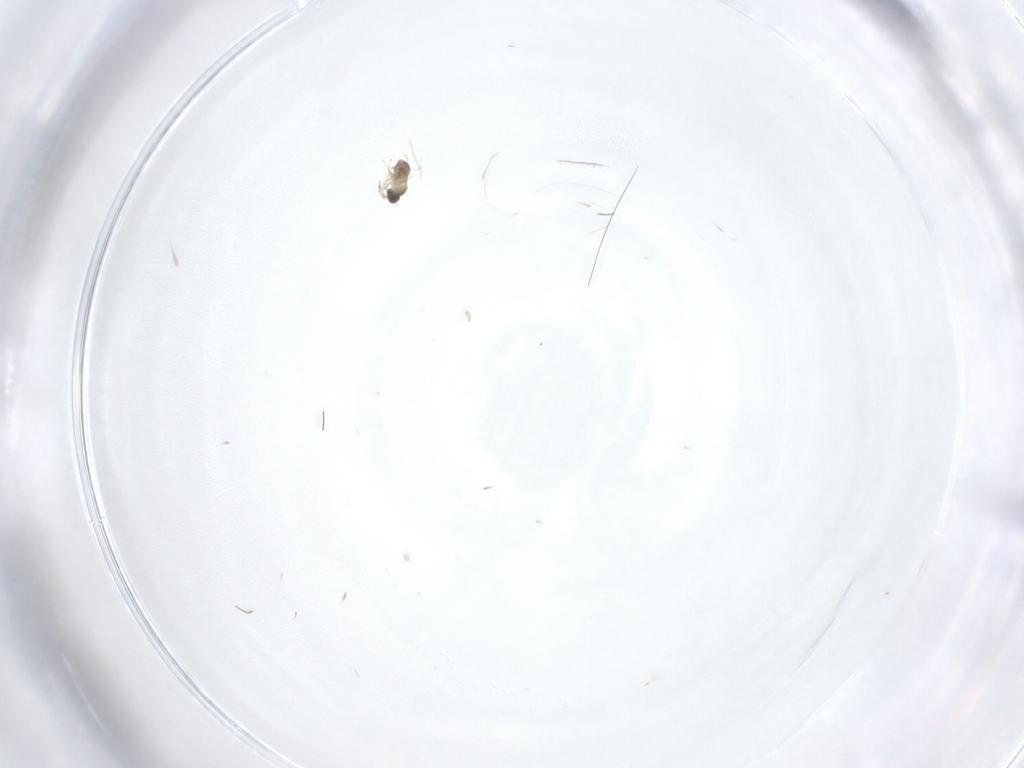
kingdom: Animalia
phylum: Arthropoda
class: Insecta
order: Hymenoptera
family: Mymaridae
